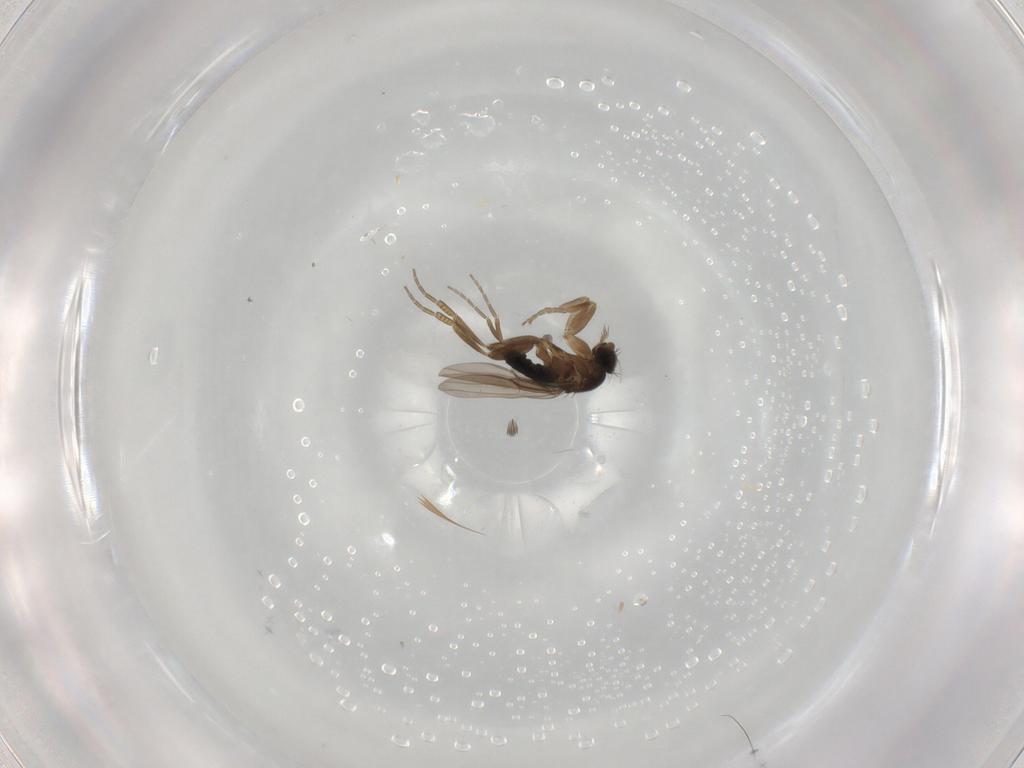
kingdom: Animalia
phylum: Arthropoda
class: Insecta
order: Diptera
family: Phoridae
